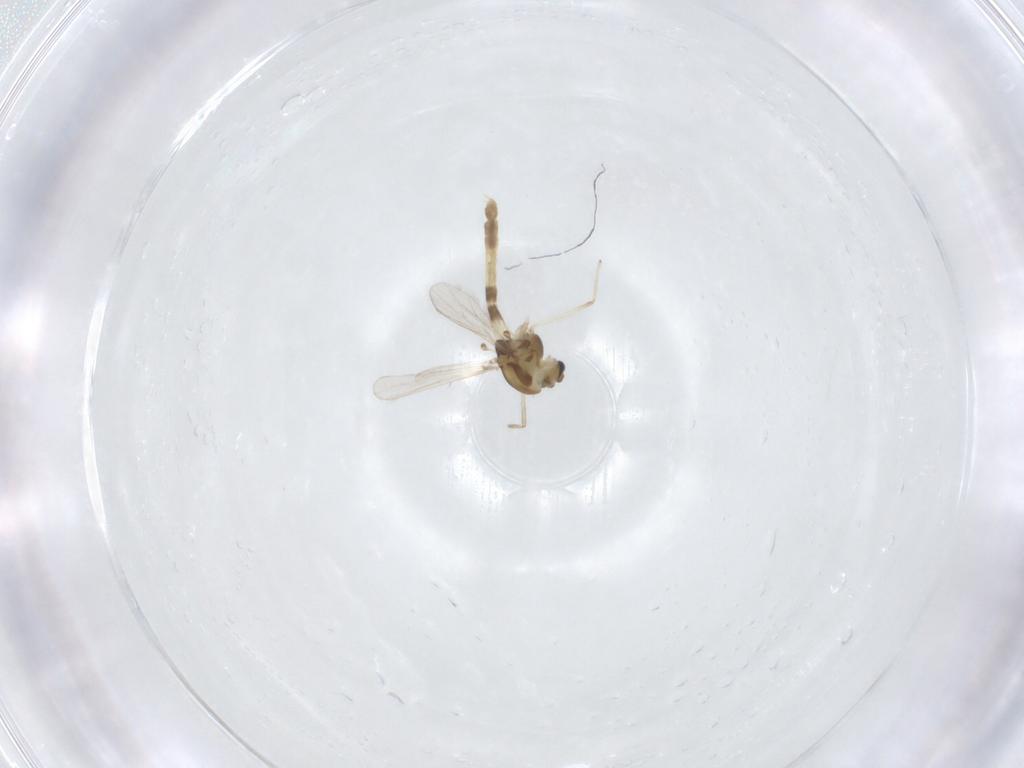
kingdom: Animalia
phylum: Arthropoda
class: Insecta
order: Diptera
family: Chironomidae
